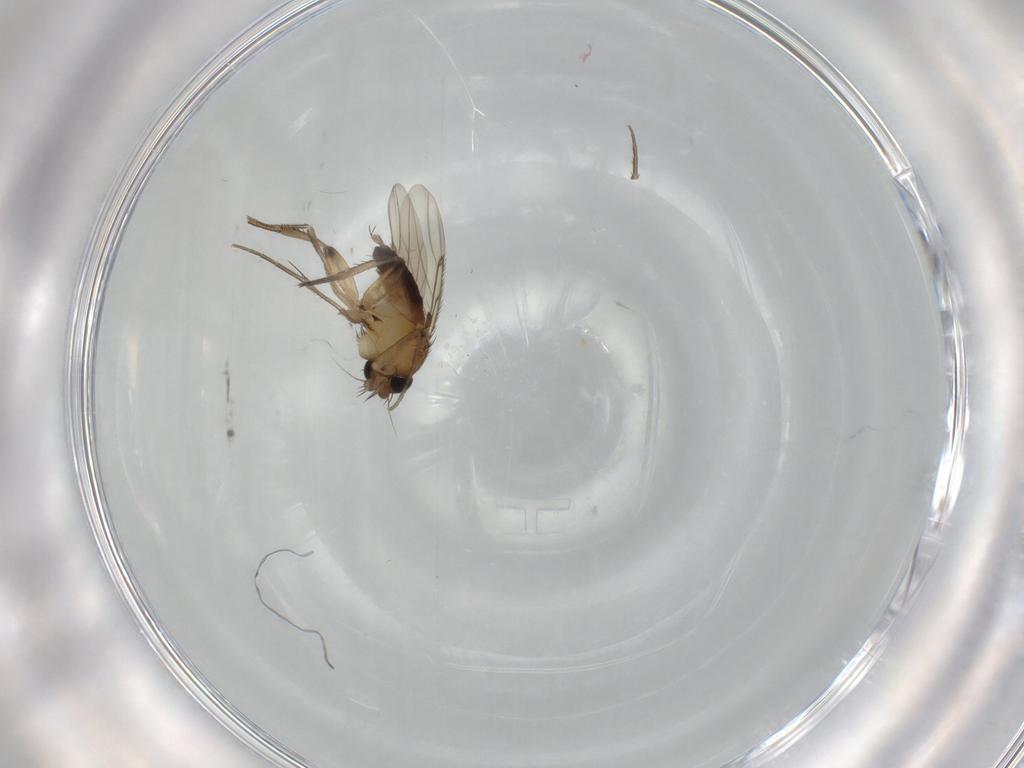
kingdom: Animalia
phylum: Arthropoda
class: Insecta
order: Diptera
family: Phoridae
